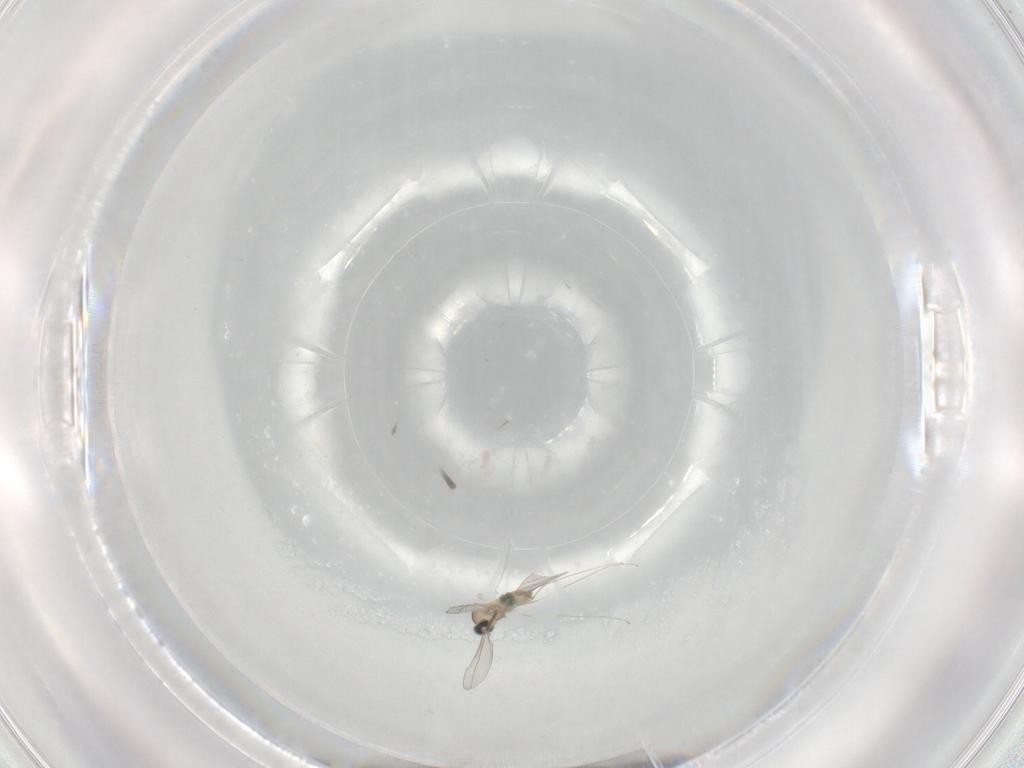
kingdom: Animalia
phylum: Arthropoda
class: Insecta
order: Diptera
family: Cecidomyiidae
